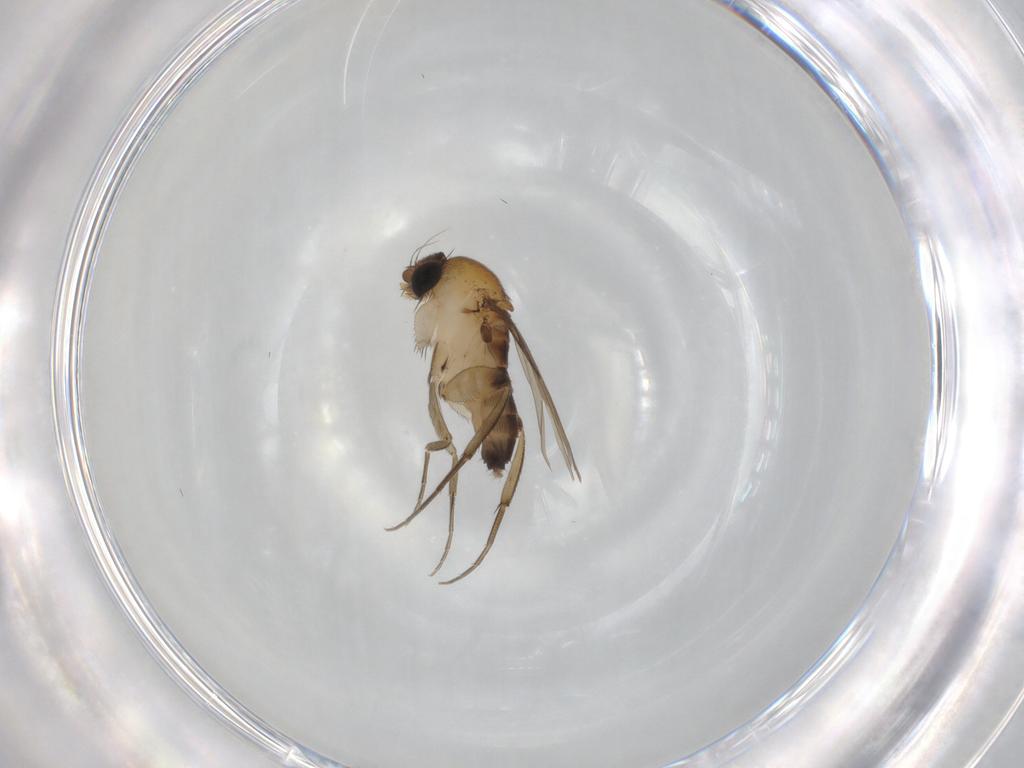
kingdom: Animalia
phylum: Arthropoda
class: Insecta
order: Diptera
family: Phoridae
